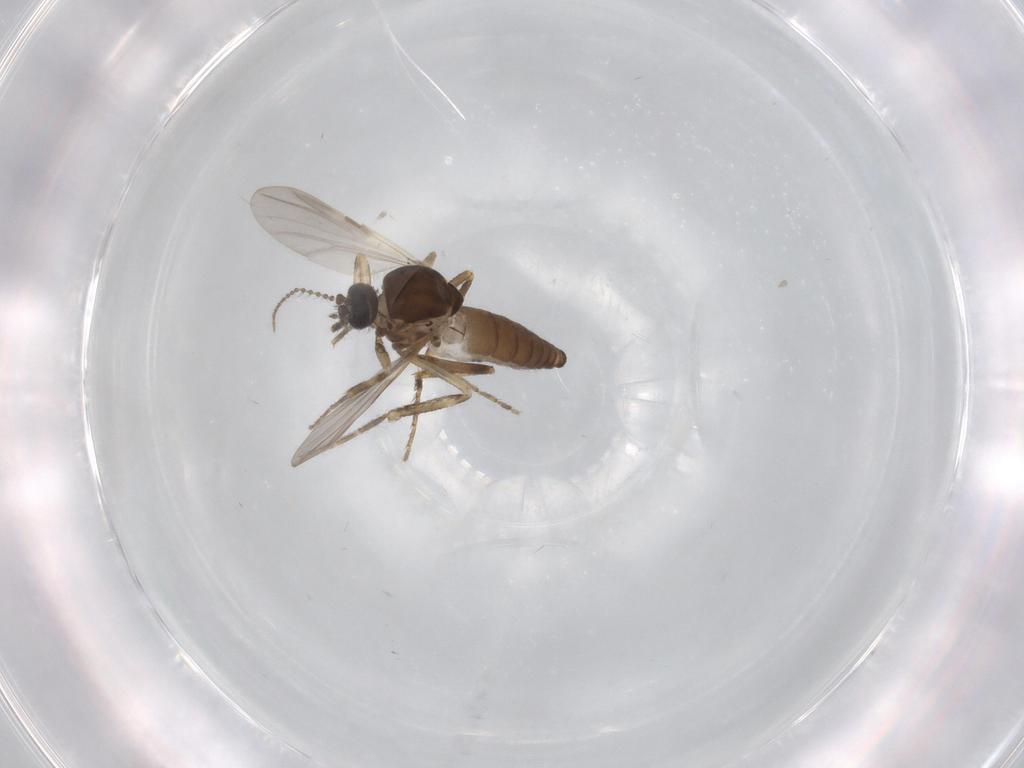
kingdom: Animalia
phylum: Arthropoda
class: Insecta
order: Diptera
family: Ceratopogonidae
